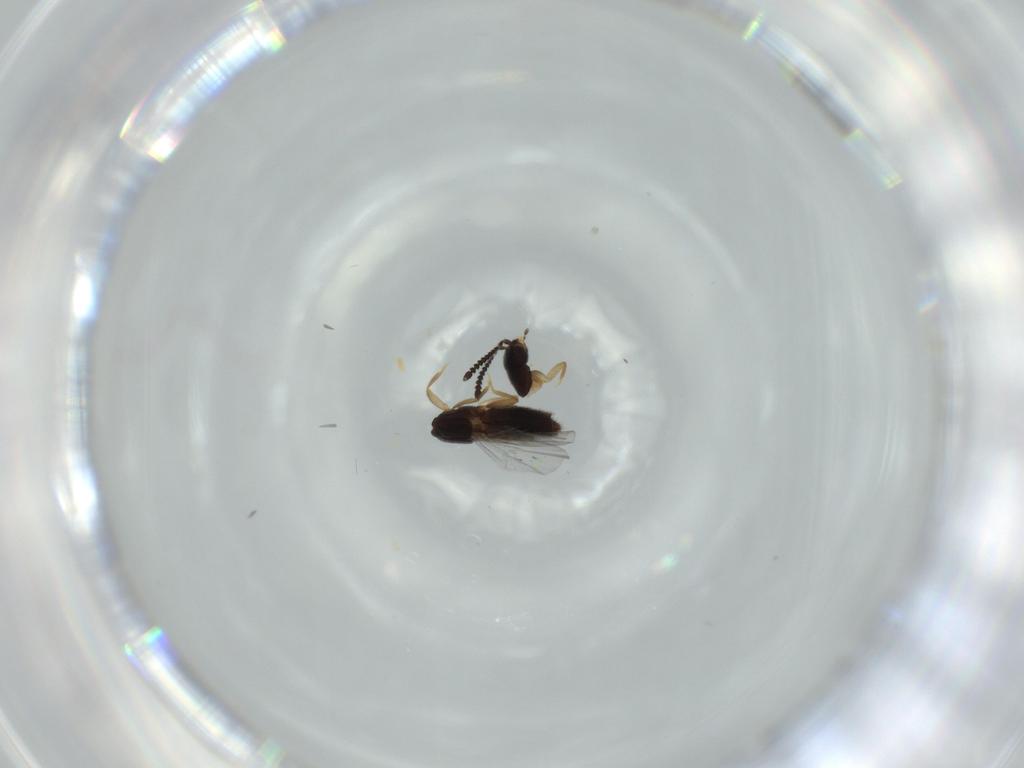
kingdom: Animalia
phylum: Arthropoda
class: Insecta
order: Coleoptera
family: Staphylinidae
